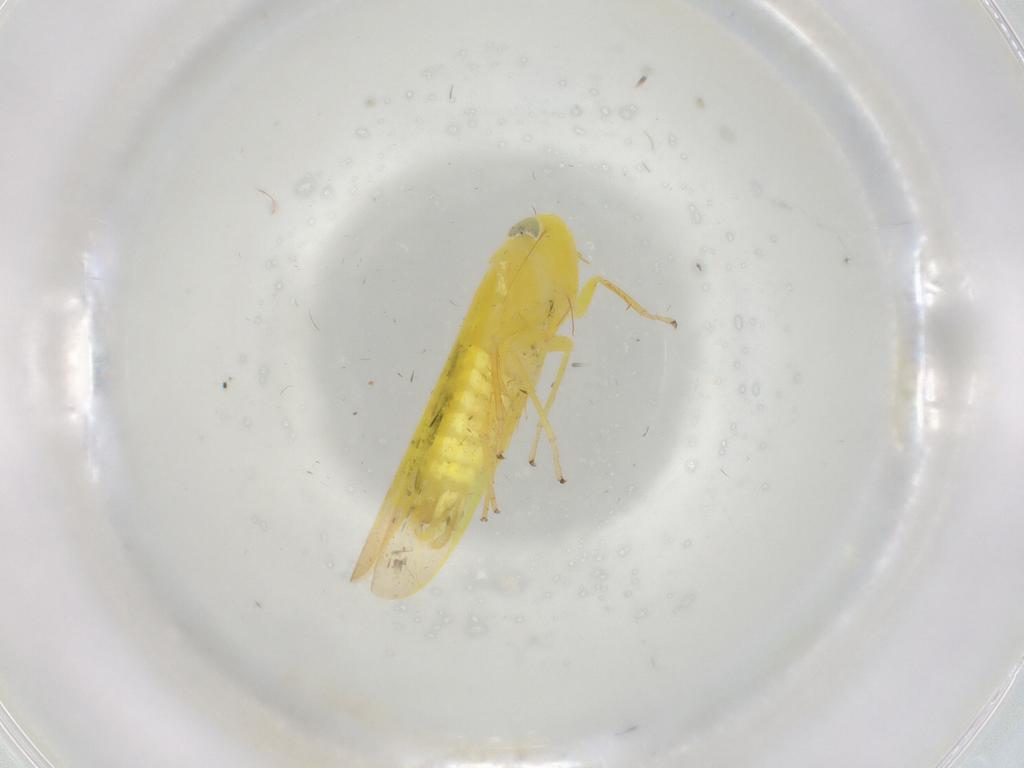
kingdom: Animalia
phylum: Arthropoda
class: Insecta
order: Hemiptera
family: Cicadellidae
